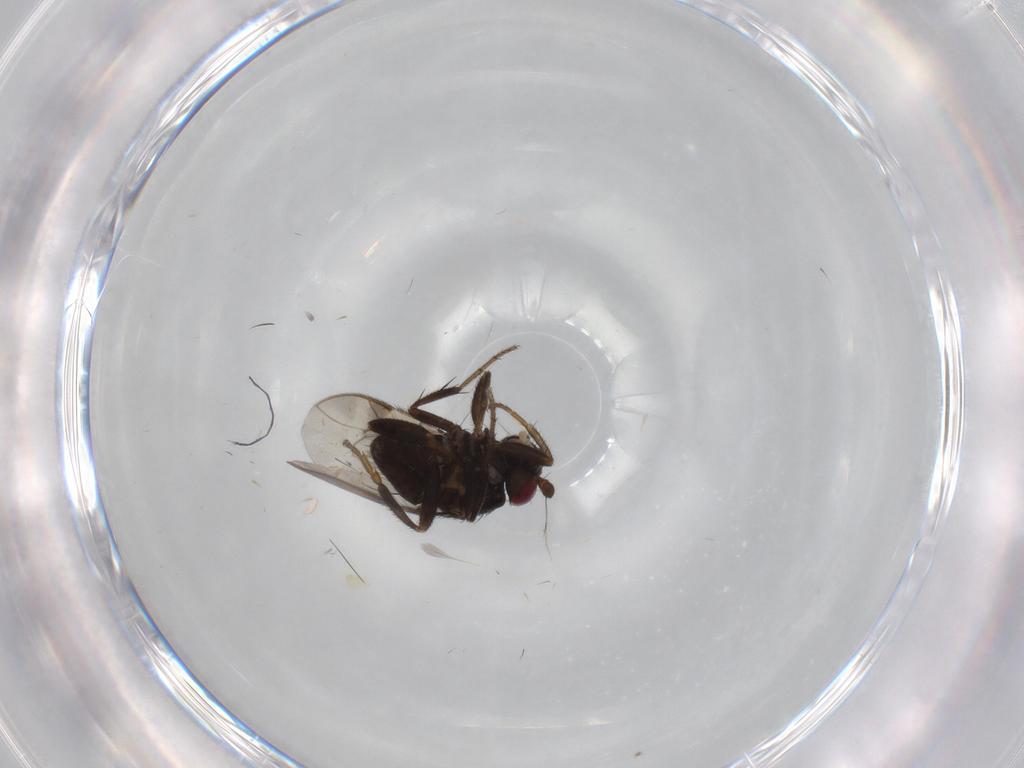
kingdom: Animalia
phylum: Arthropoda
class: Insecta
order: Diptera
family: Sphaeroceridae
